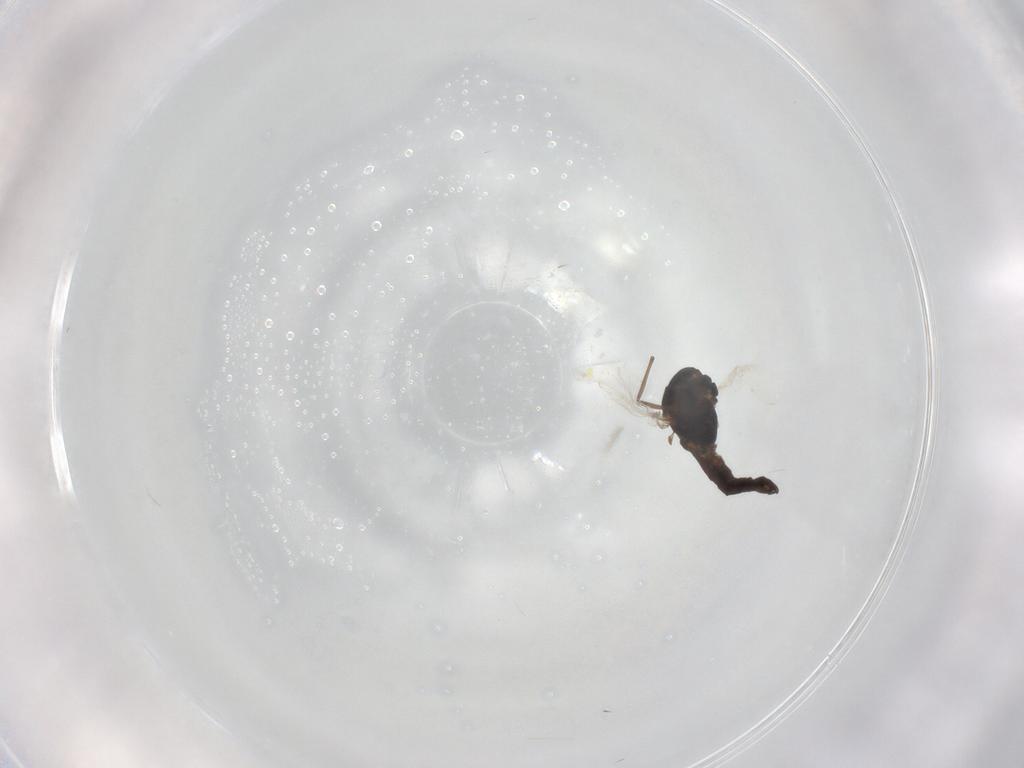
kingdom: Animalia
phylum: Arthropoda
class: Insecta
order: Diptera
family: Chironomidae
